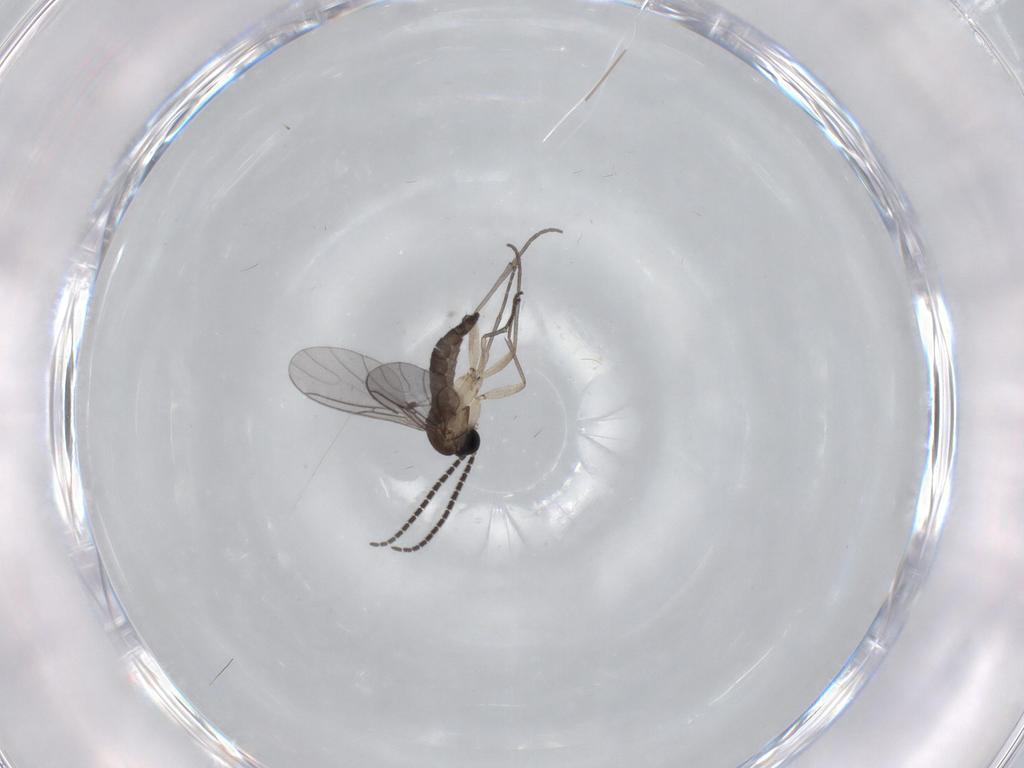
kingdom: Animalia
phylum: Arthropoda
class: Insecta
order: Diptera
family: Sciaridae
